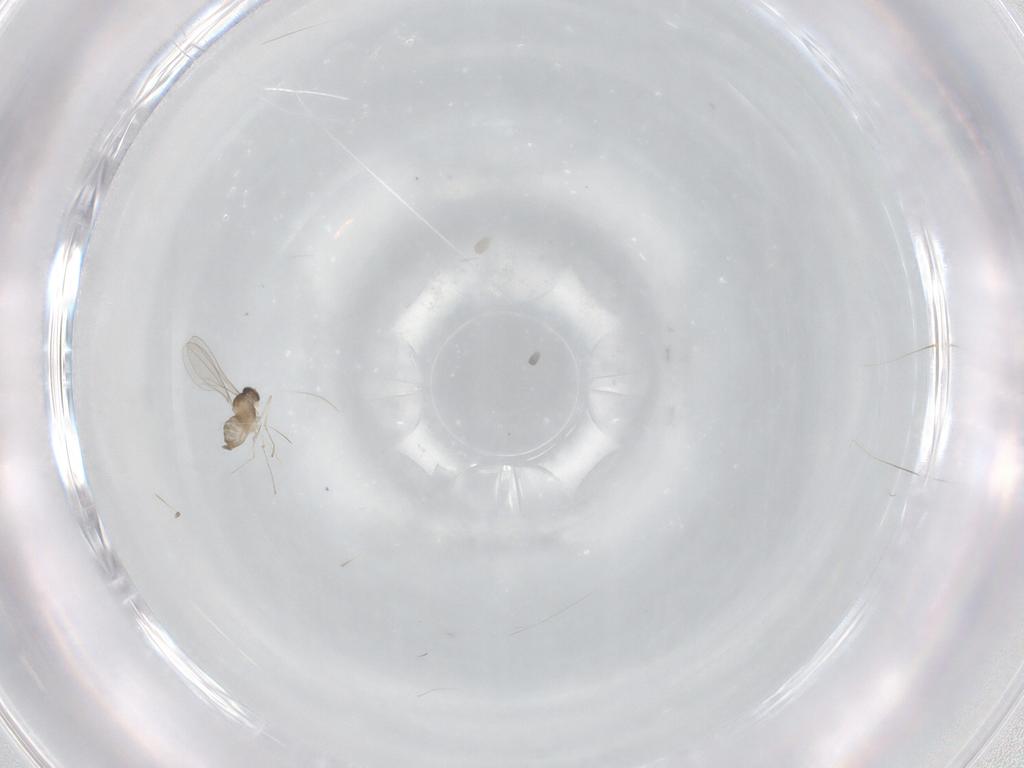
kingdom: Animalia
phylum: Arthropoda
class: Insecta
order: Diptera
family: Cecidomyiidae
